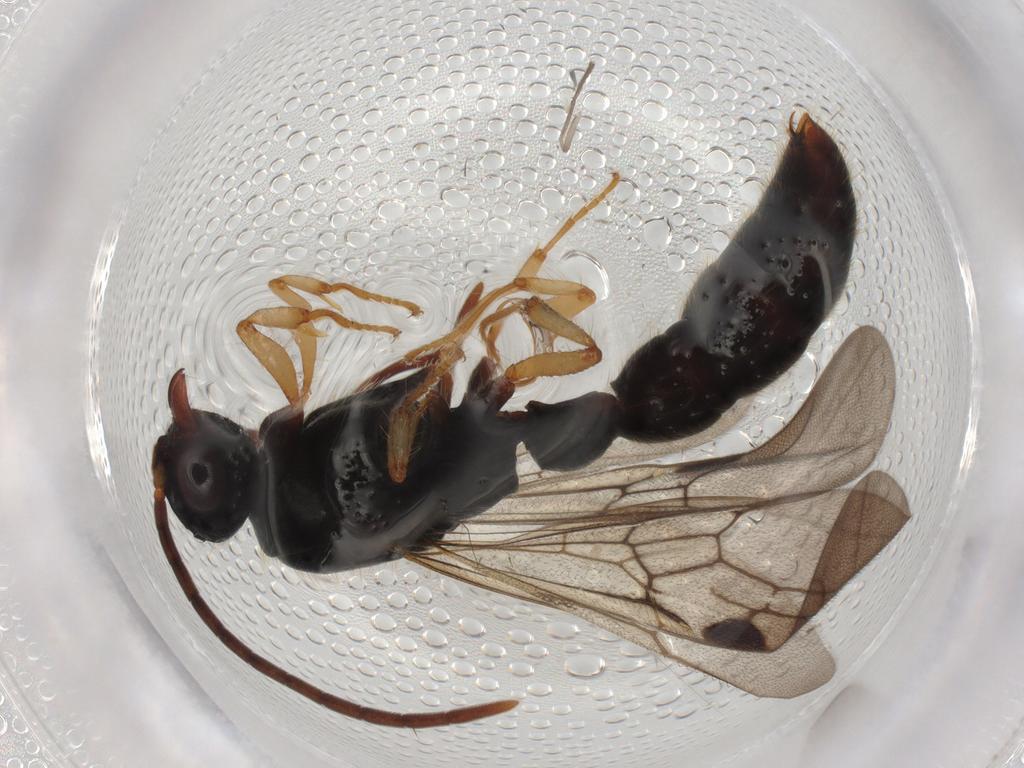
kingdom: Animalia
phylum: Arthropoda
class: Insecta
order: Hymenoptera
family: Formicidae
